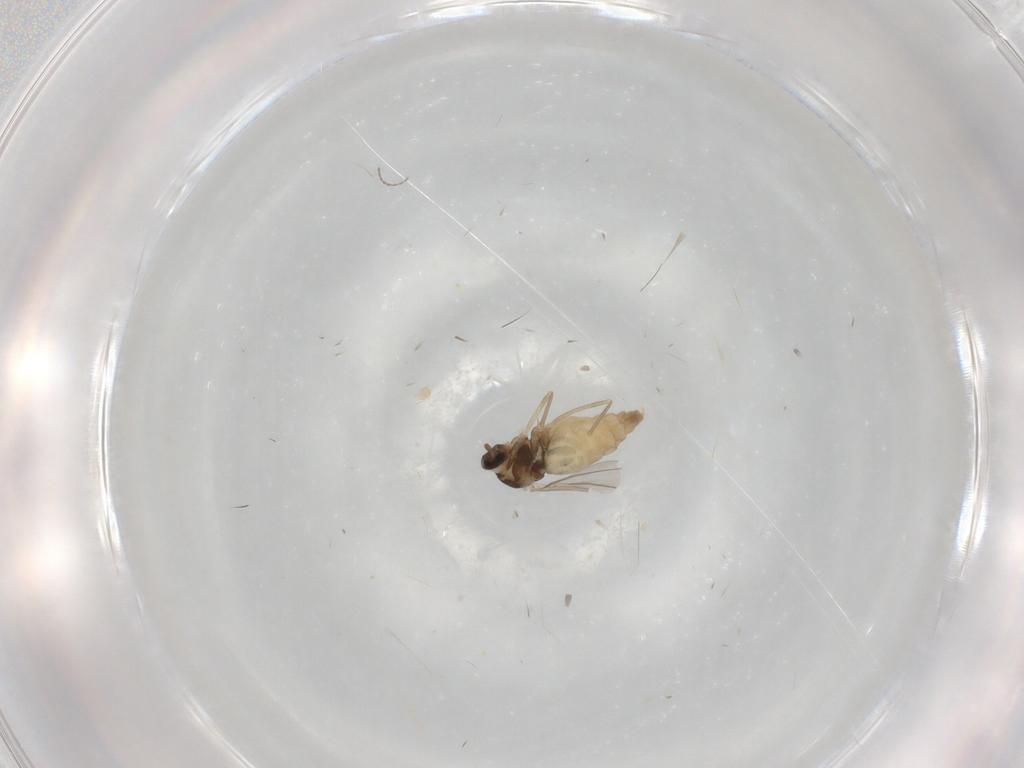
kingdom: Animalia
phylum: Arthropoda
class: Insecta
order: Diptera
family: Cecidomyiidae
